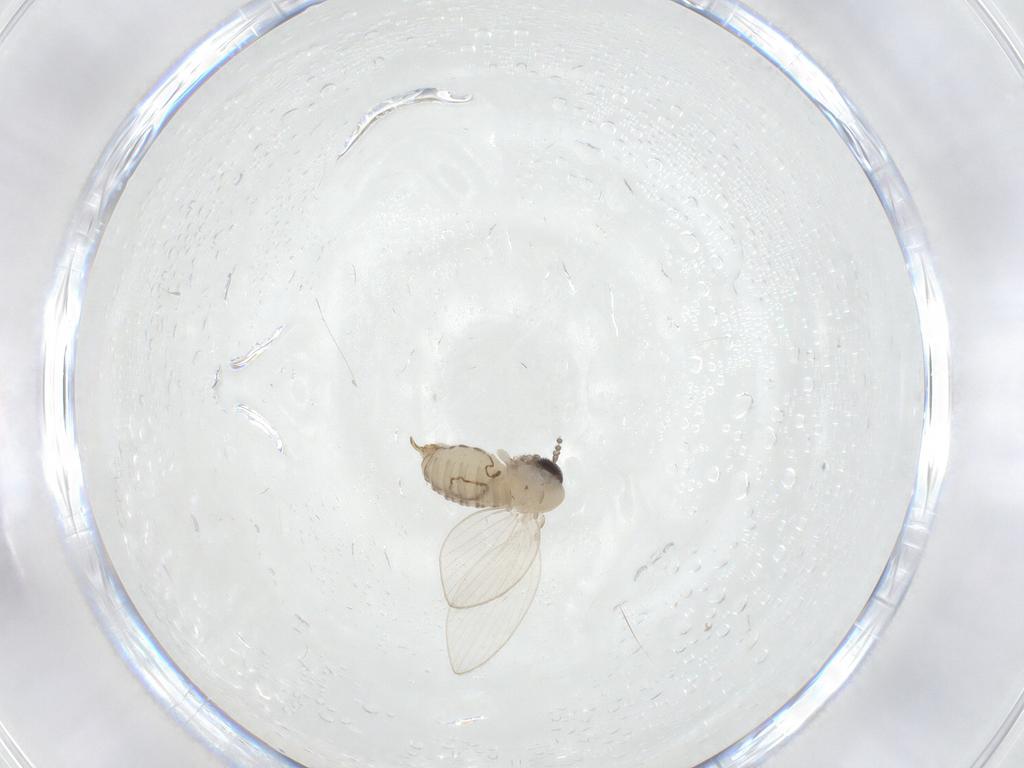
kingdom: Animalia
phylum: Arthropoda
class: Insecta
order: Diptera
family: Psychodidae
